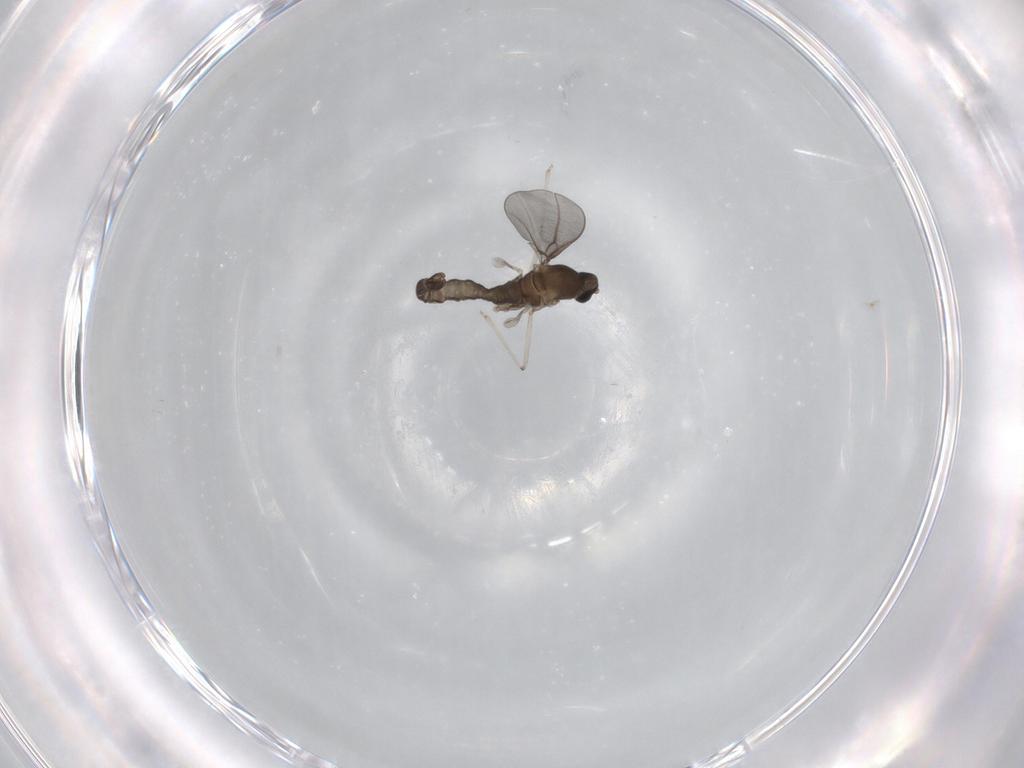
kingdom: Animalia
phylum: Arthropoda
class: Insecta
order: Diptera
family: Cecidomyiidae
